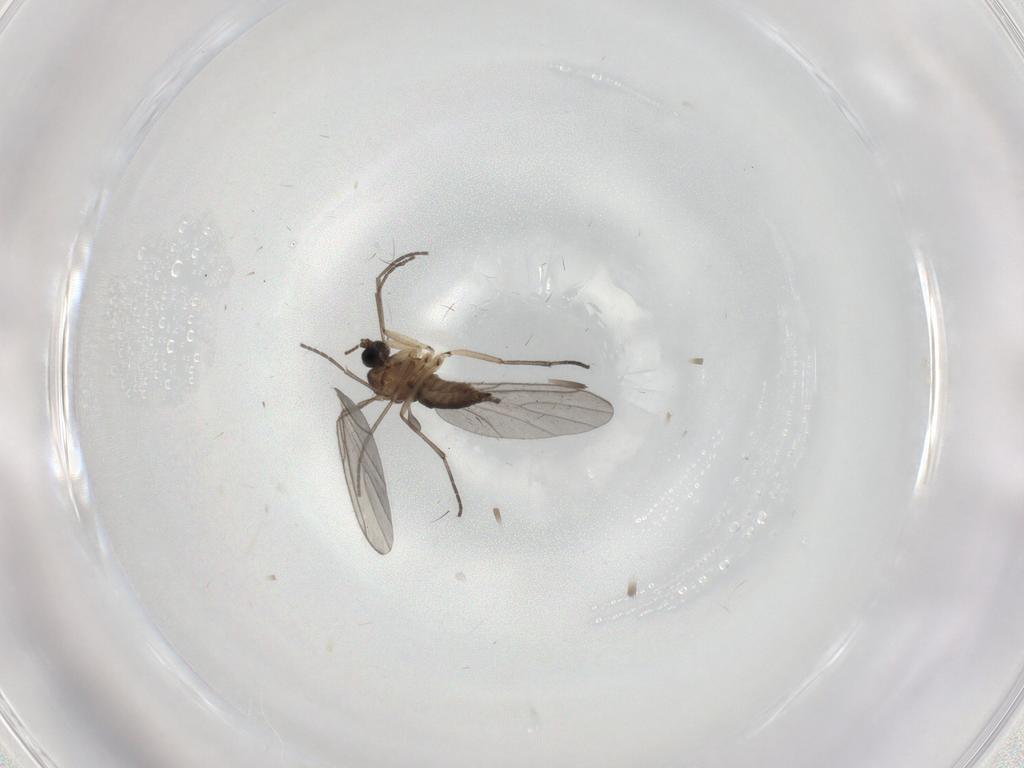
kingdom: Animalia
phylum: Arthropoda
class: Insecta
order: Diptera
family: Sciaridae
